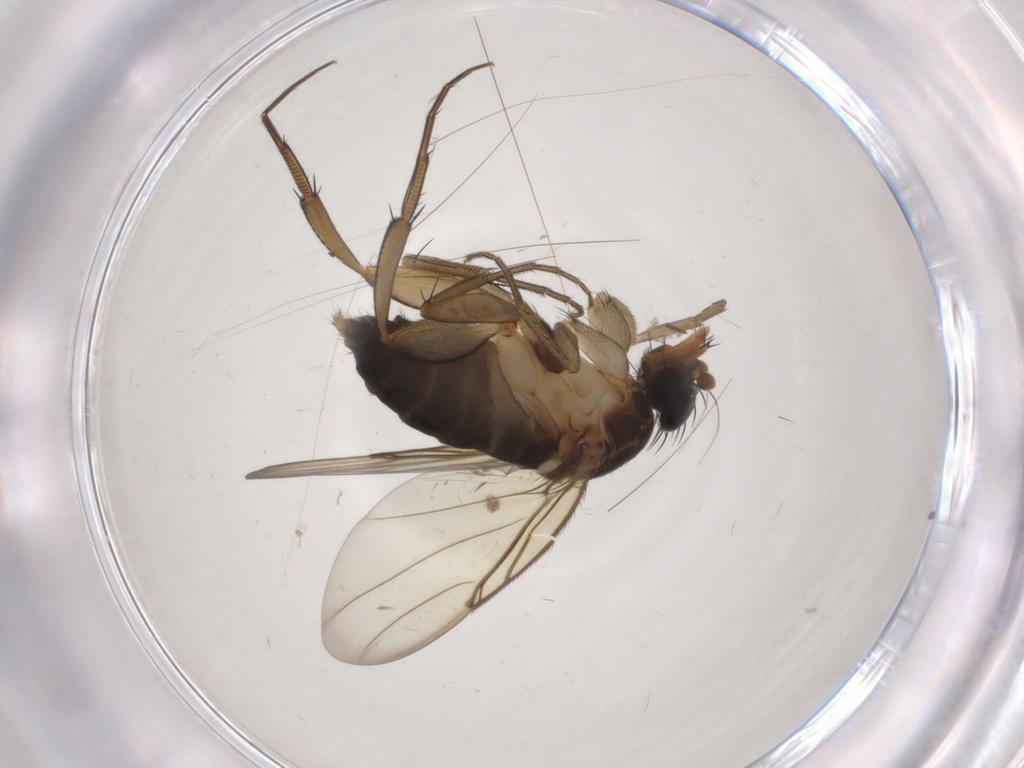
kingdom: Animalia
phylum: Arthropoda
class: Insecta
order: Diptera
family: Chironomidae
